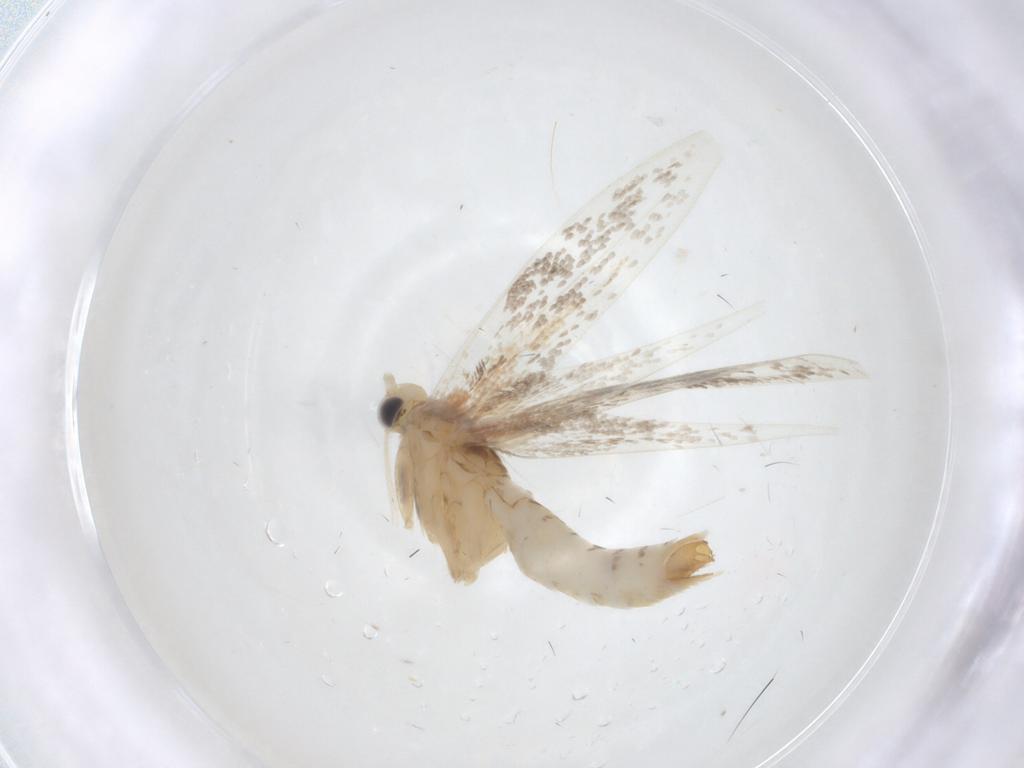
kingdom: Animalia
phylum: Arthropoda
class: Insecta
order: Lepidoptera
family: Gracillariidae
